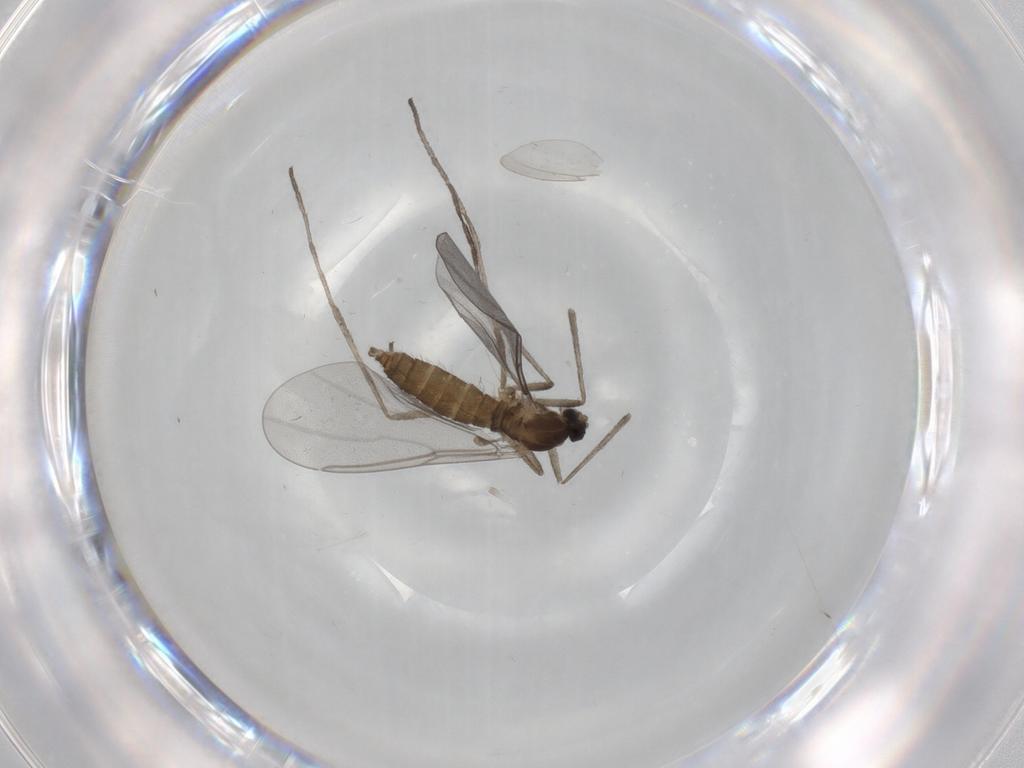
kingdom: Animalia
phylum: Arthropoda
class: Insecta
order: Diptera
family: Cecidomyiidae
